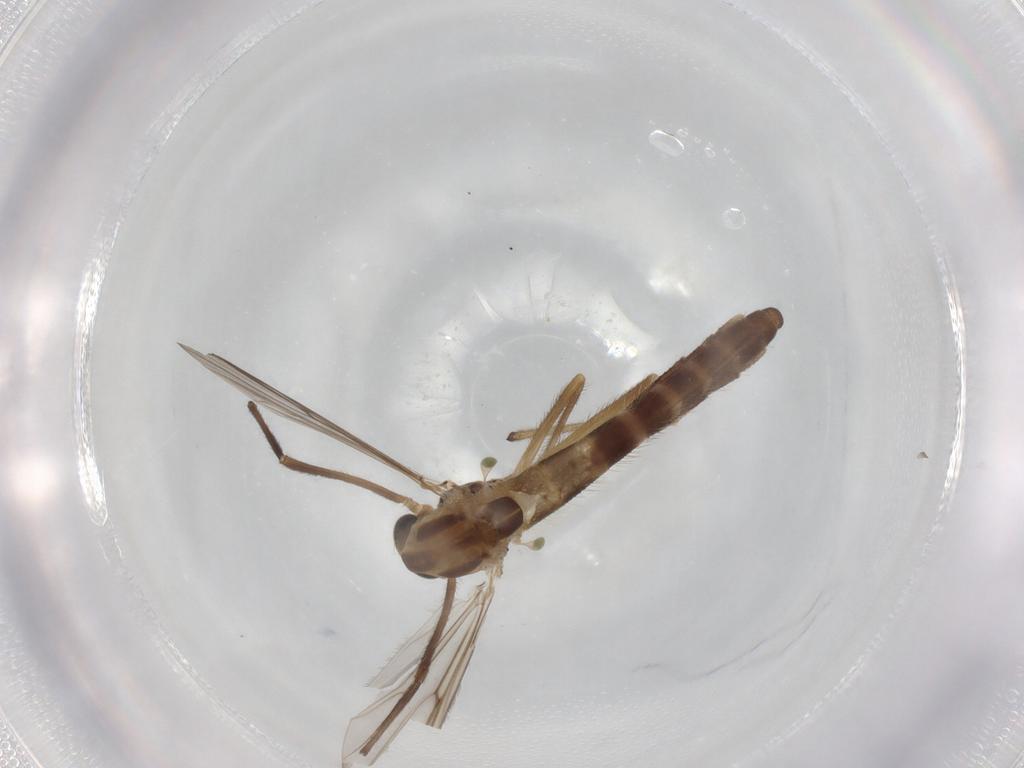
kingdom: Animalia
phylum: Arthropoda
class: Insecta
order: Diptera
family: Chironomidae
